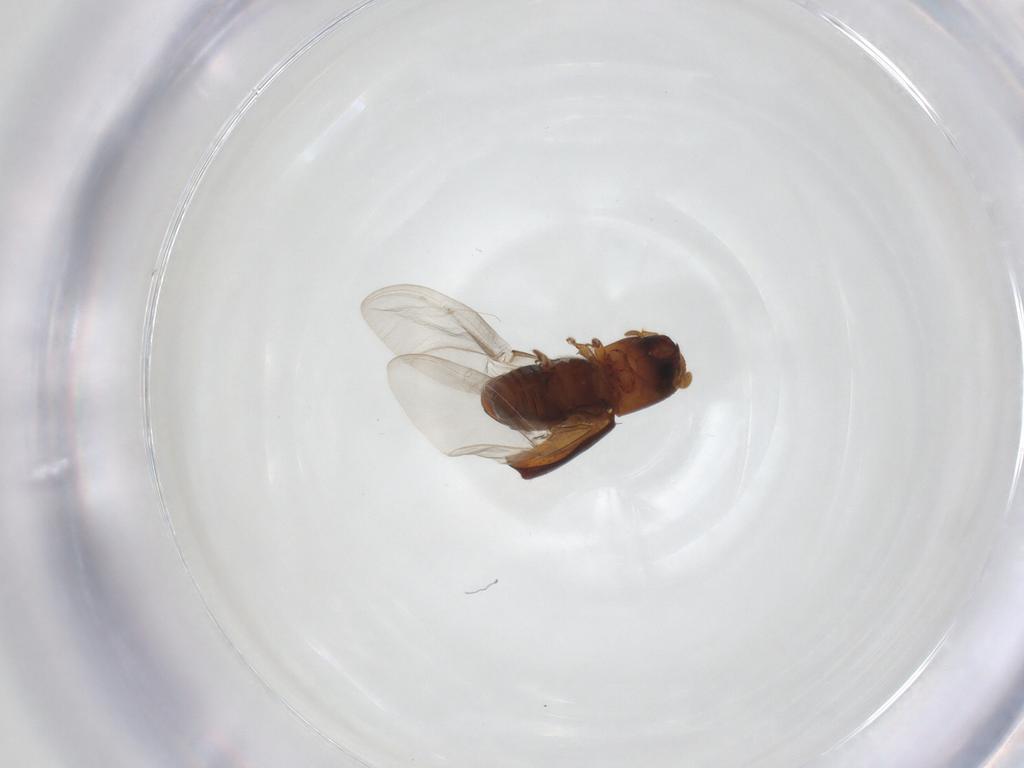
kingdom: Animalia
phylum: Arthropoda
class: Insecta
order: Coleoptera
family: Curculionidae
